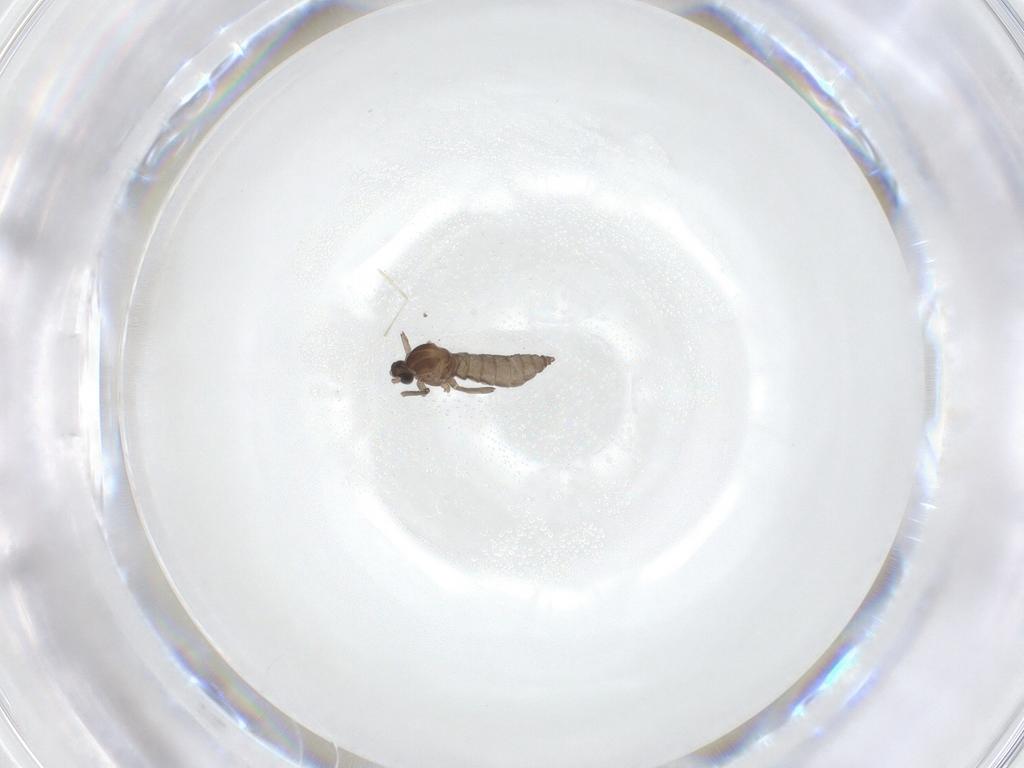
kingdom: Animalia
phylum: Arthropoda
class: Insecta
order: Diptera
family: Cecidomyiidae
